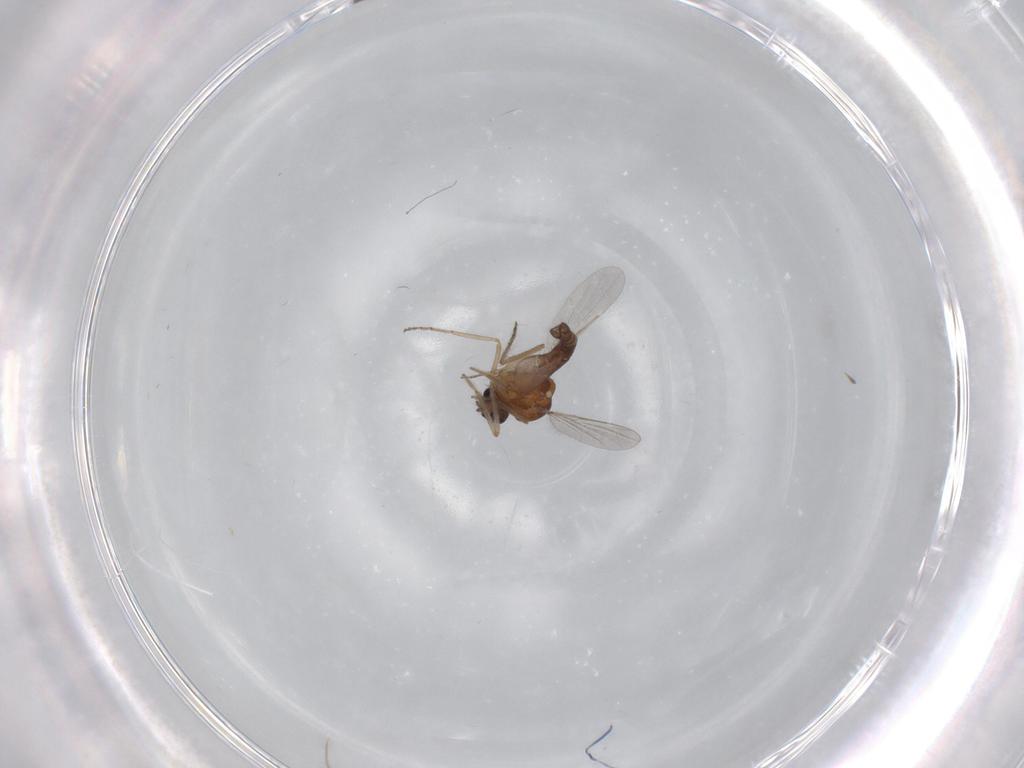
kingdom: Animalia
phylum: Arthropoda
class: Insecta
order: Diptera
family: Ceratopogonidae
